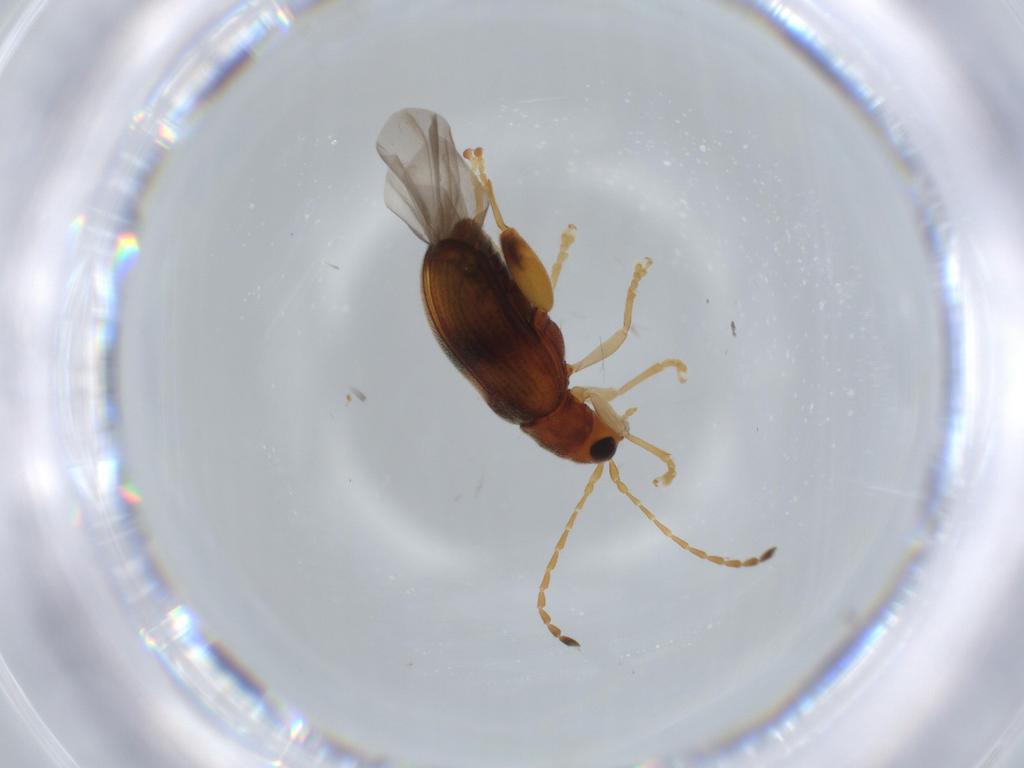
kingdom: Animalia
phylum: Arthropoda
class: Insecta
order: Coleoptera
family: Chrysomelidae
